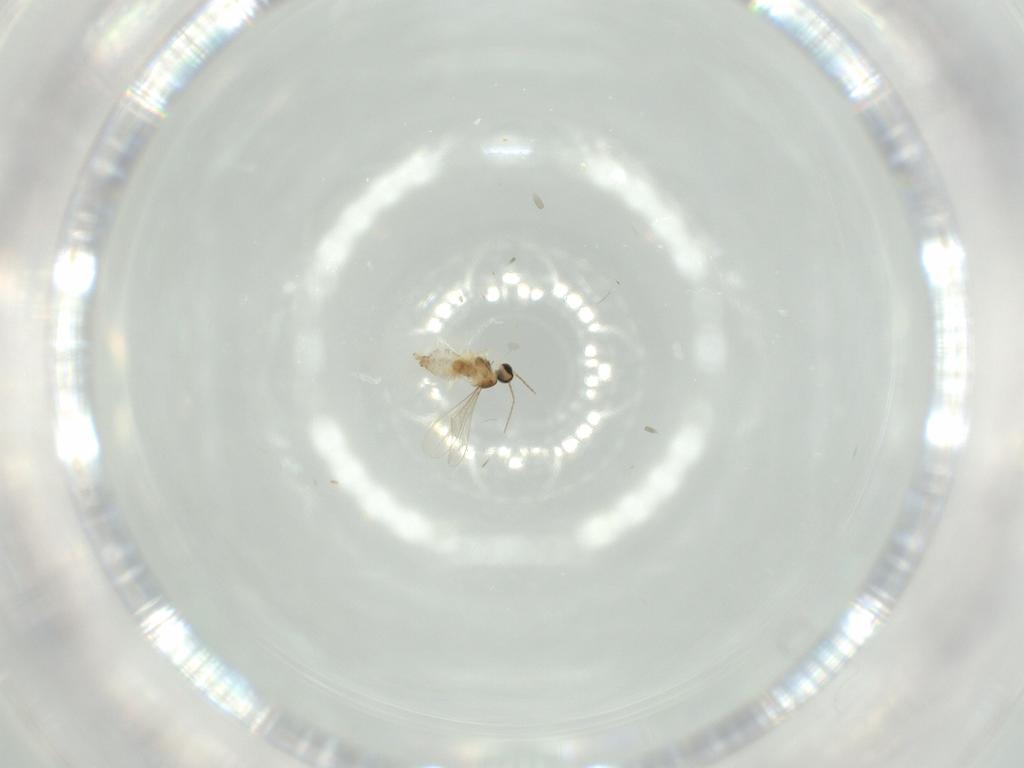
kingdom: Animalia
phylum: Arthropoda
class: Insecta
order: Diptera
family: Chironomidae
